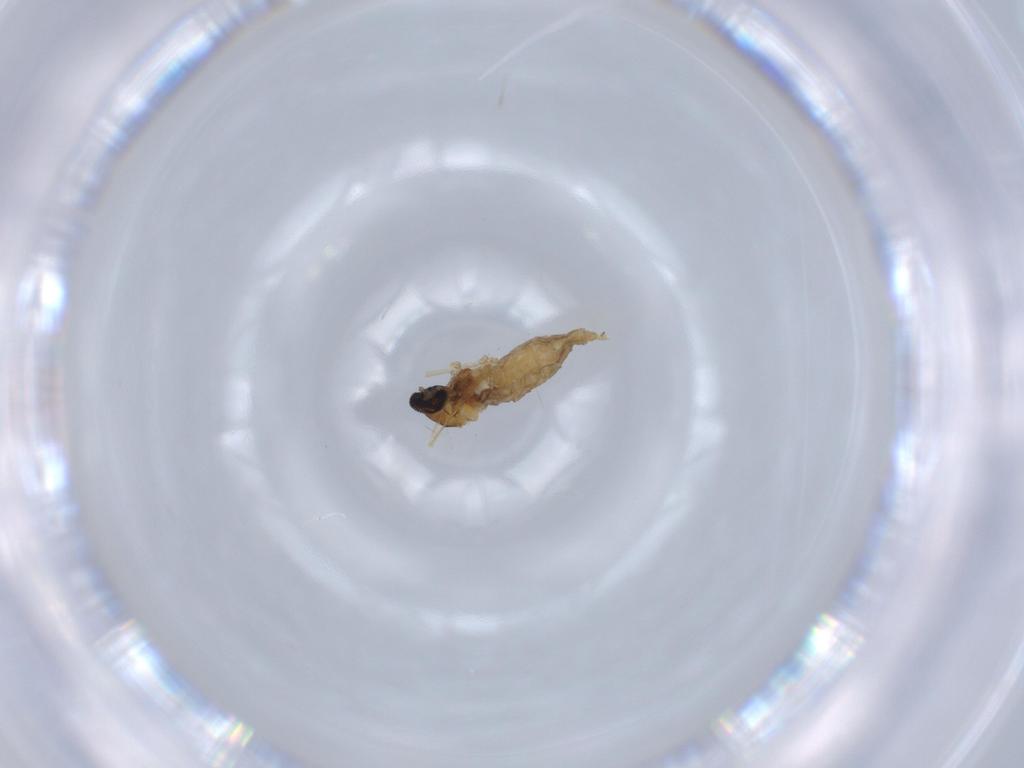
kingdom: Animalia
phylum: Arthropoda
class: Insecta
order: Diptera
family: Cecidomyiidae
